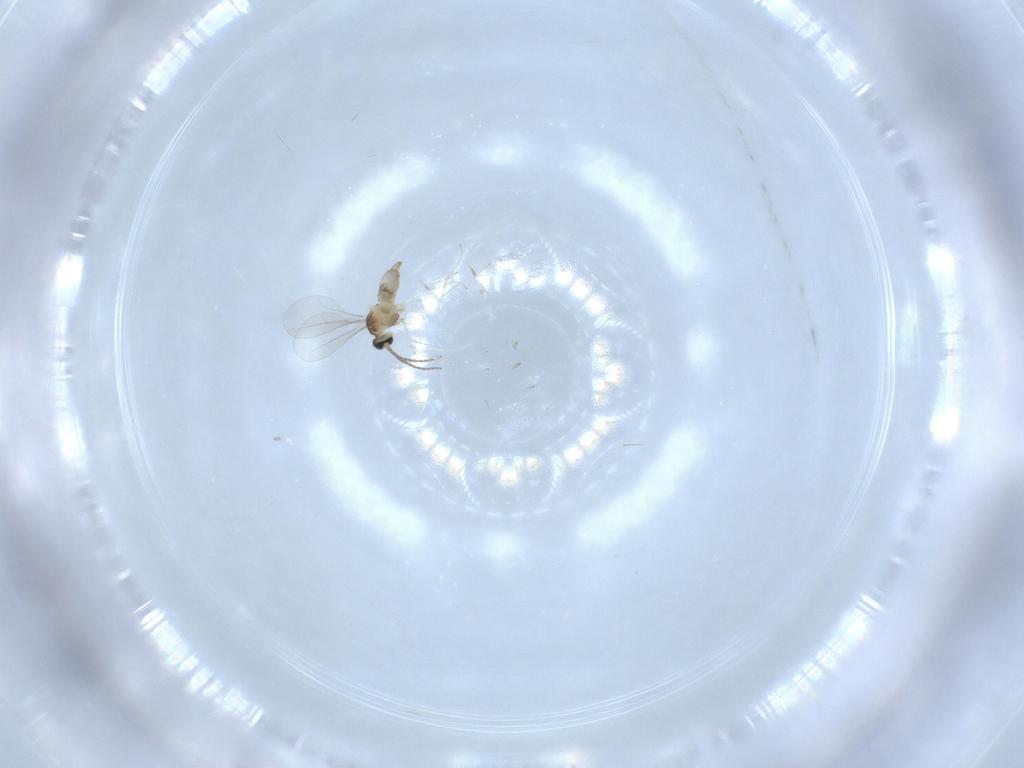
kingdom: Animalia
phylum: Arthropoda
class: Insecta
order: Diptera
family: Cecidomyiidae
